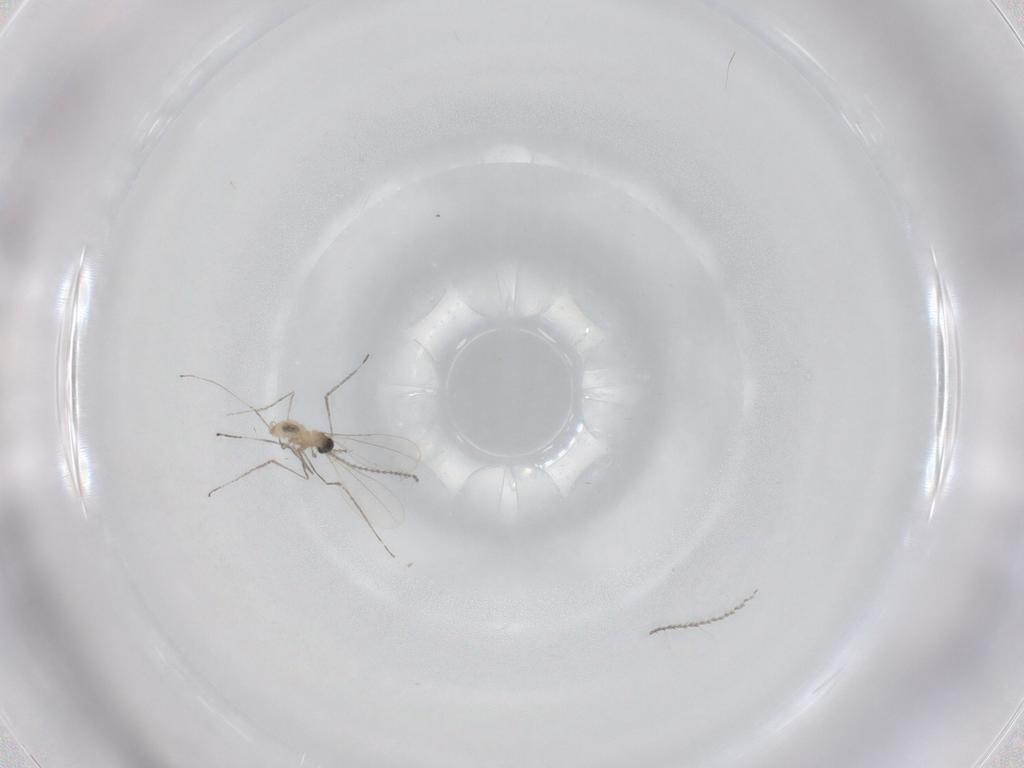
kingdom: Animalia
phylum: Arthropoda
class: Insecta
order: Diptera
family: Cecidomyiidae
